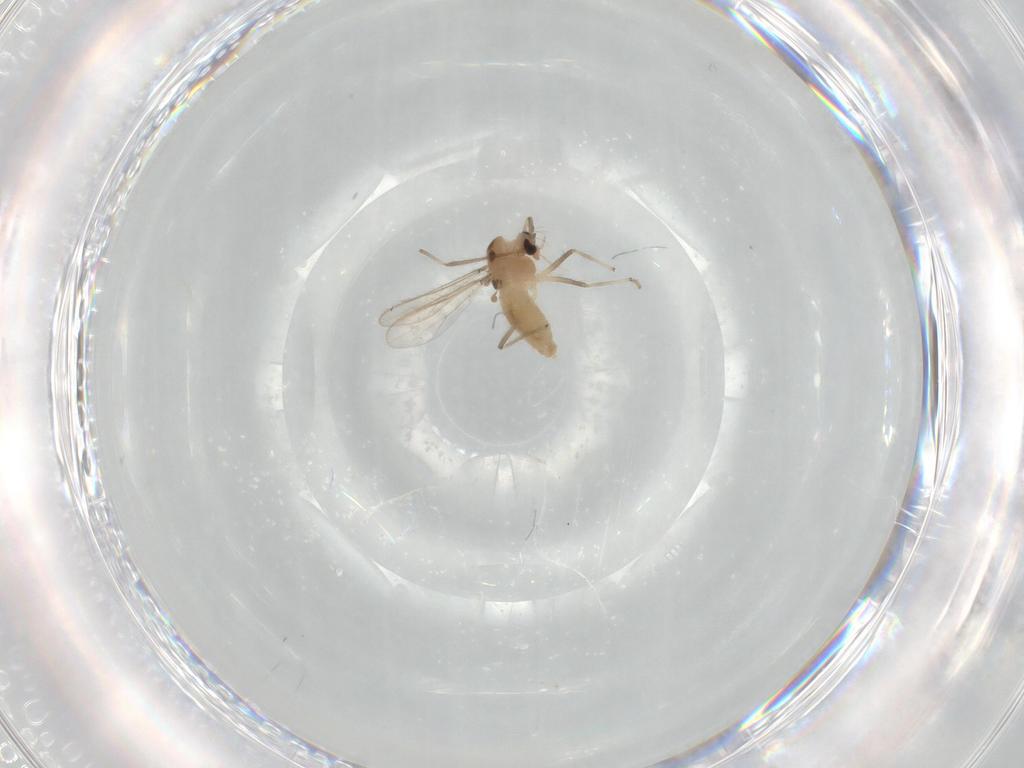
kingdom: Animalia
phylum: Arthropoda
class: Insecta
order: Diptera
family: Chironomidae
